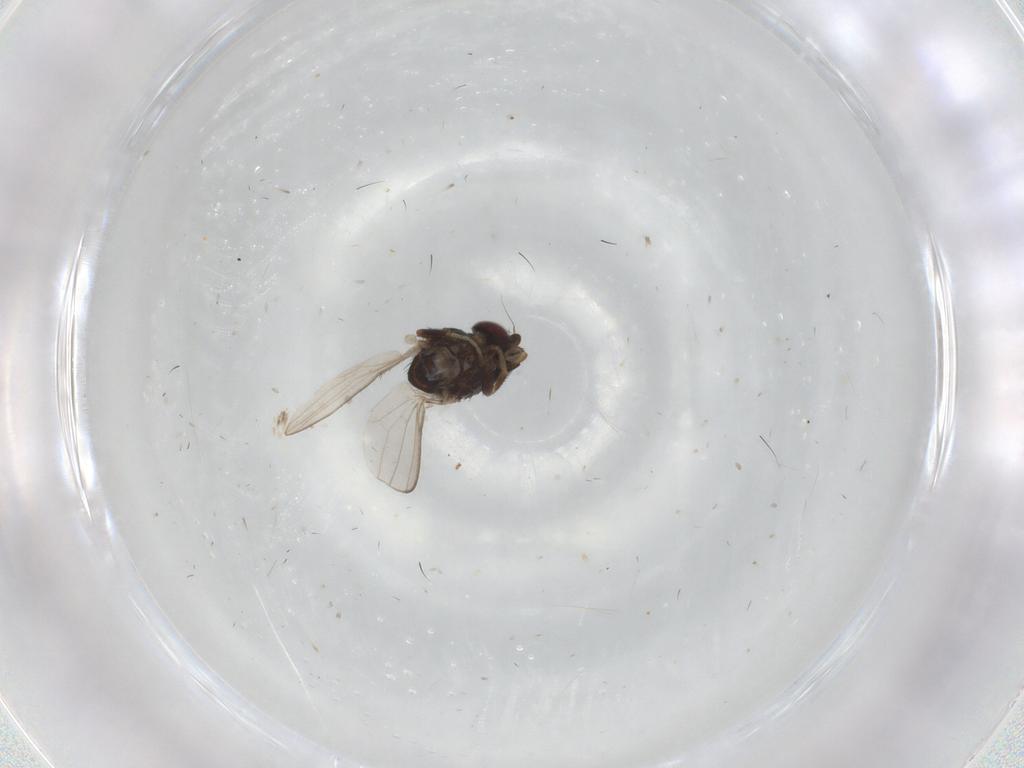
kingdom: Animalia
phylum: Arthropoda
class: Insecta
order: Diptera
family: Milichiidae
